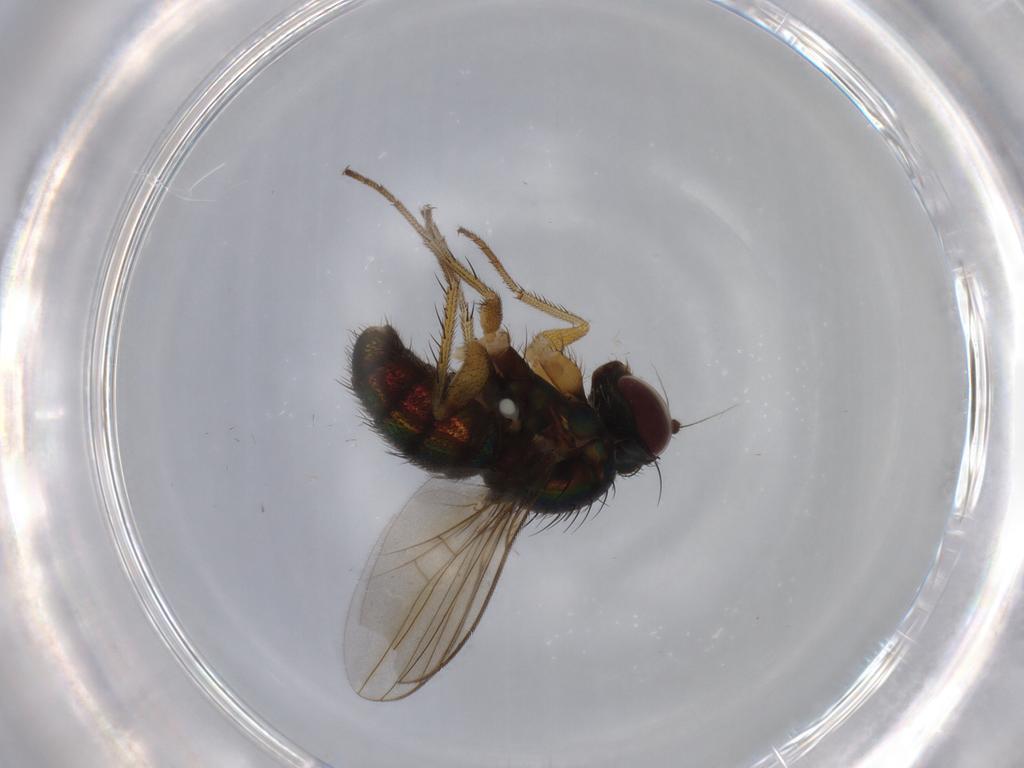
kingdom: Animalia
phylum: Arthropoda
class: Insecta
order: Diptera
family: Dolichopodidae
